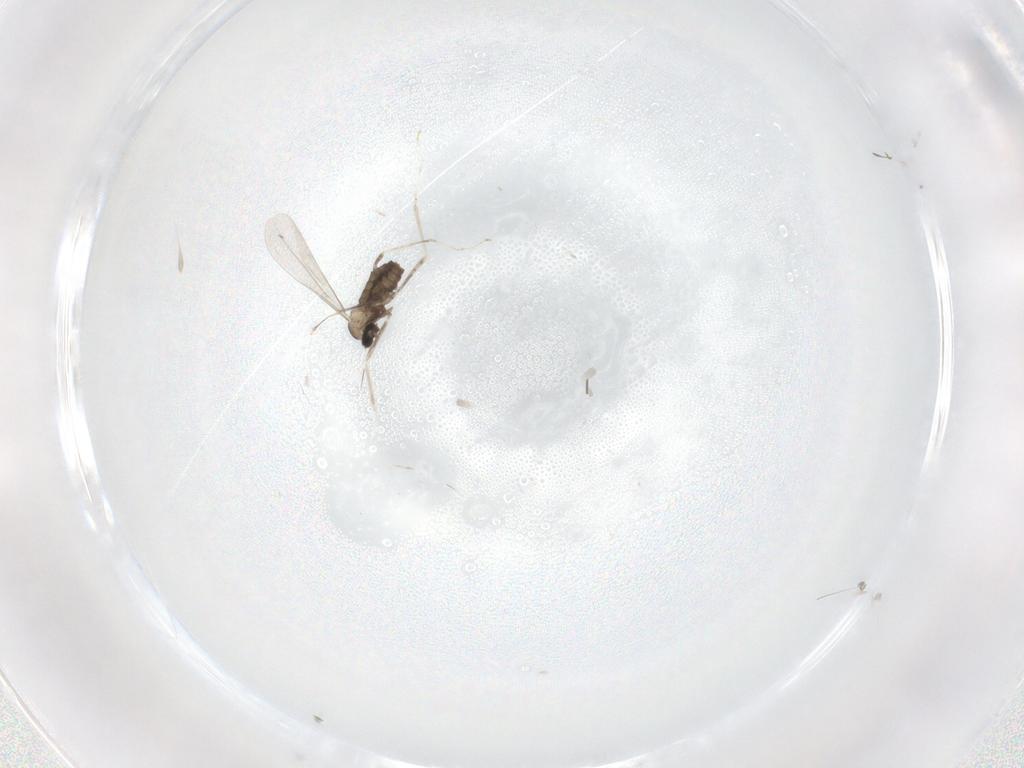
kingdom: Animalia
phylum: Arthropoda
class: Insecta
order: Diptera
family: Cecidomyiidae
